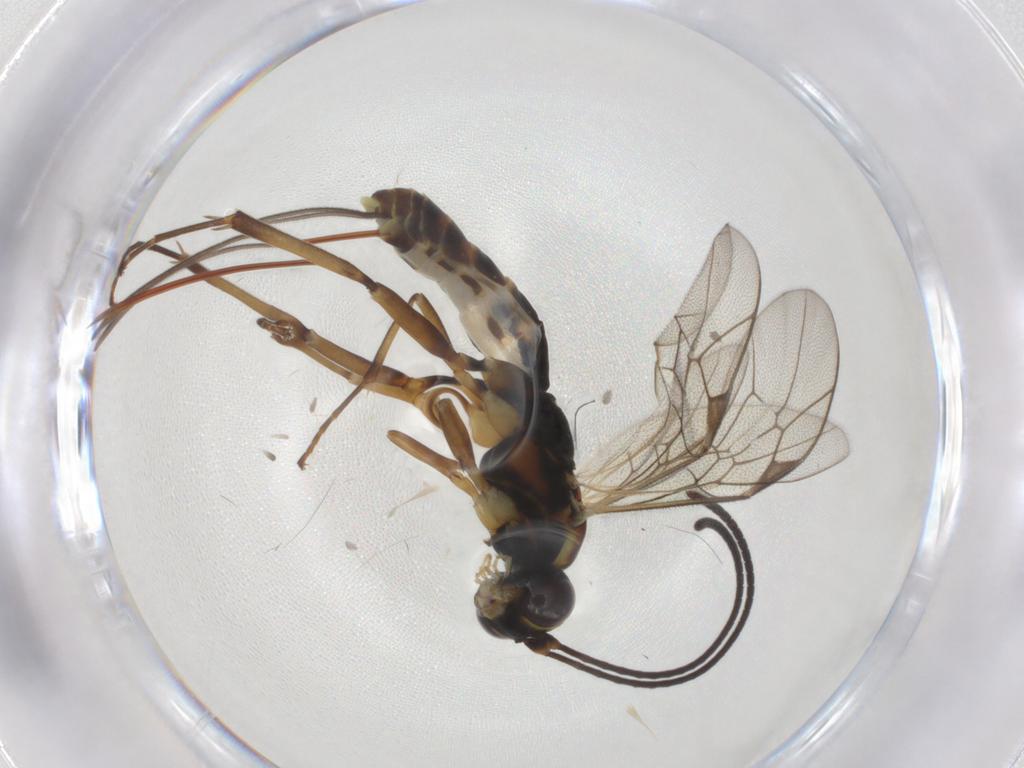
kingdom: Animalia
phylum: Arthropoda
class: Insecta
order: Hymenoptera
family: Ichneumonidae
